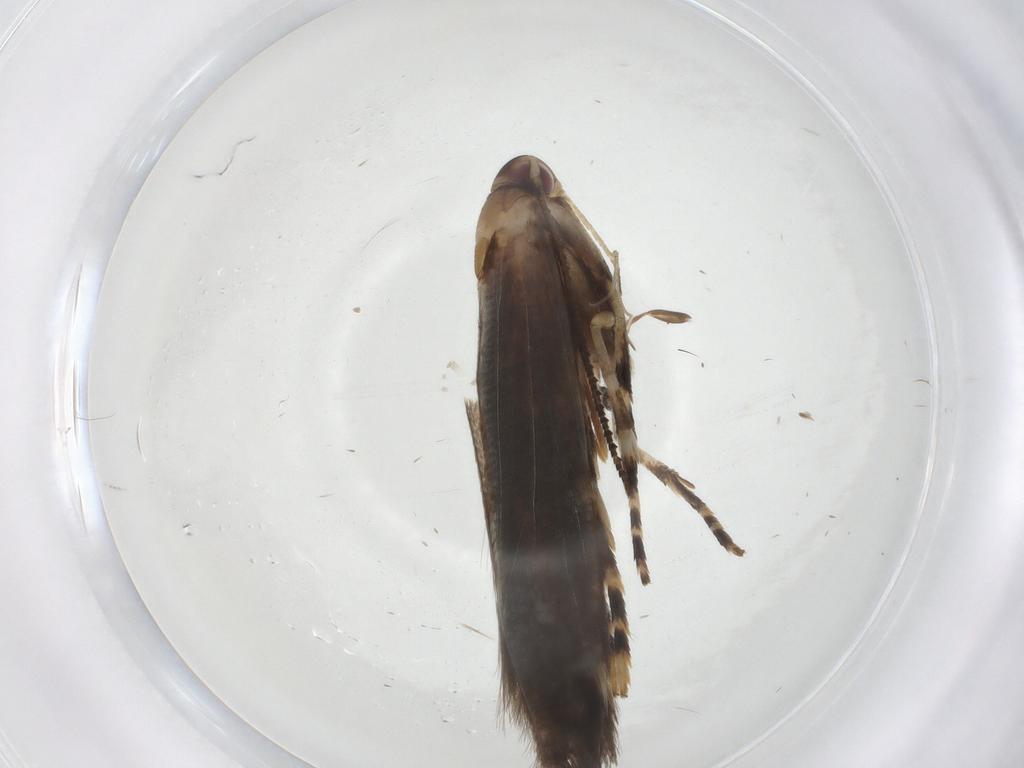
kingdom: Animalia
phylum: Arthropoda
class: Insecta
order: Lepidoptera
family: Cosmopterigidae
